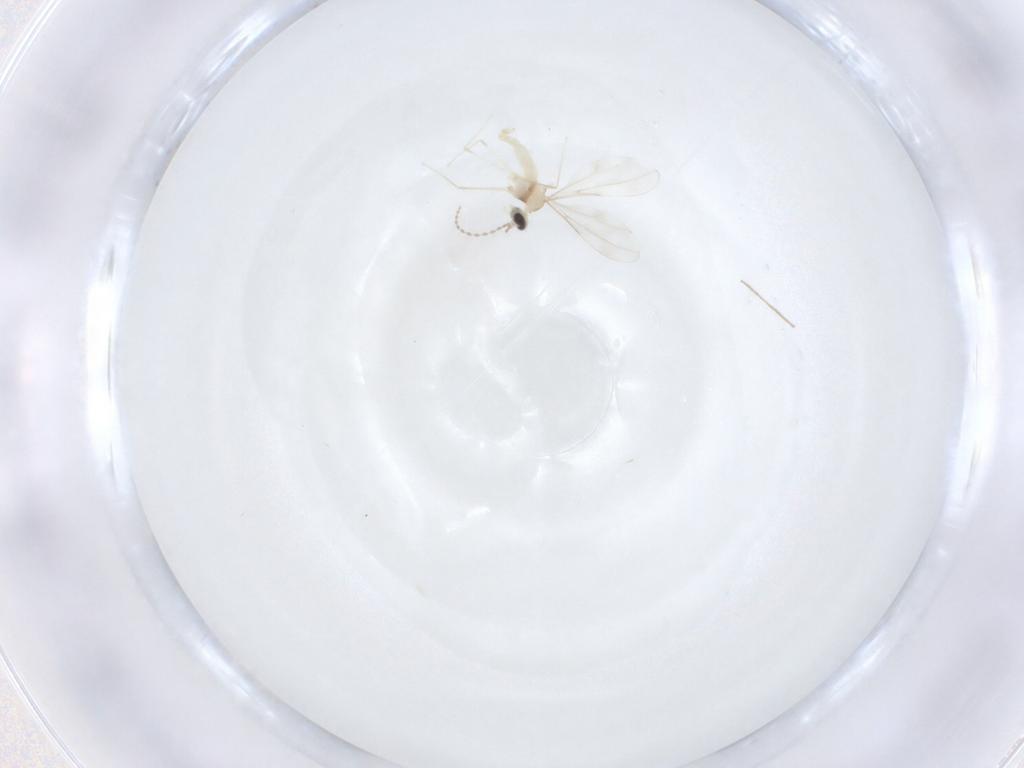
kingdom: Animalia
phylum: Arthropoda
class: Insecta
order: Diptera
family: Cecidomyiidae
